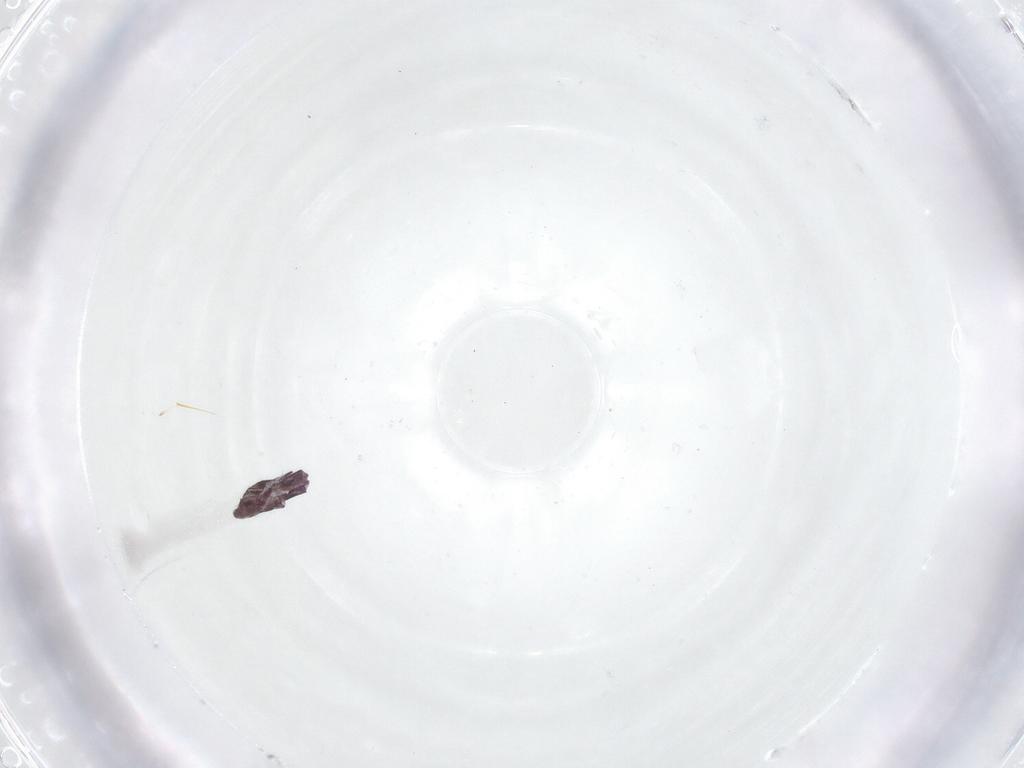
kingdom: Animalia
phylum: Arthropoda
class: Collembola
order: Entomobryomorpha
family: Entomobryidae
